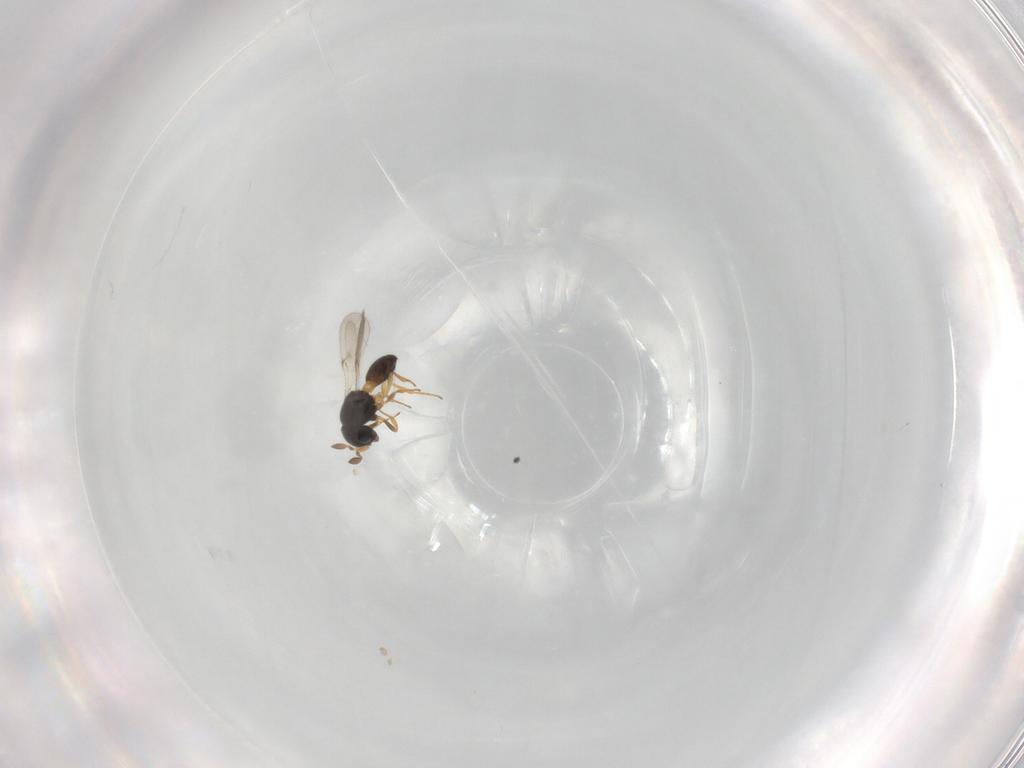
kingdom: Animalia
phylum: Arthropoda
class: Insecta
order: Hymenoptera
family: Scelionidae
